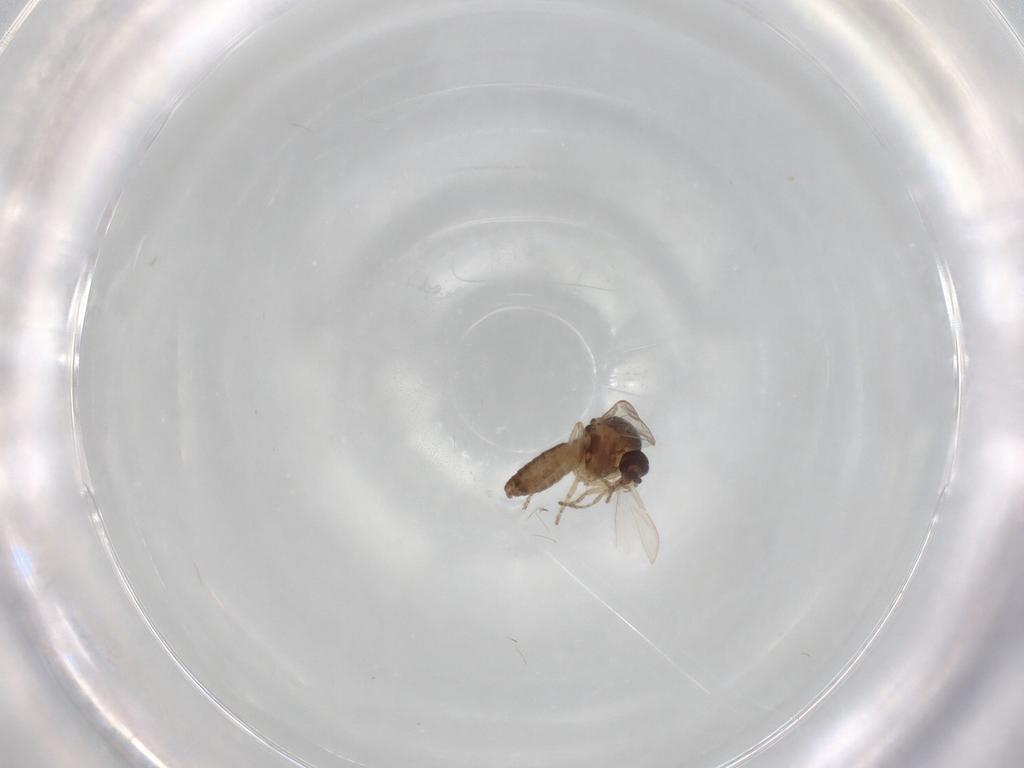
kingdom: Animalia
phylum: Arthropoda
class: Insecta
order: Diptera
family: Ceratopogonidae
